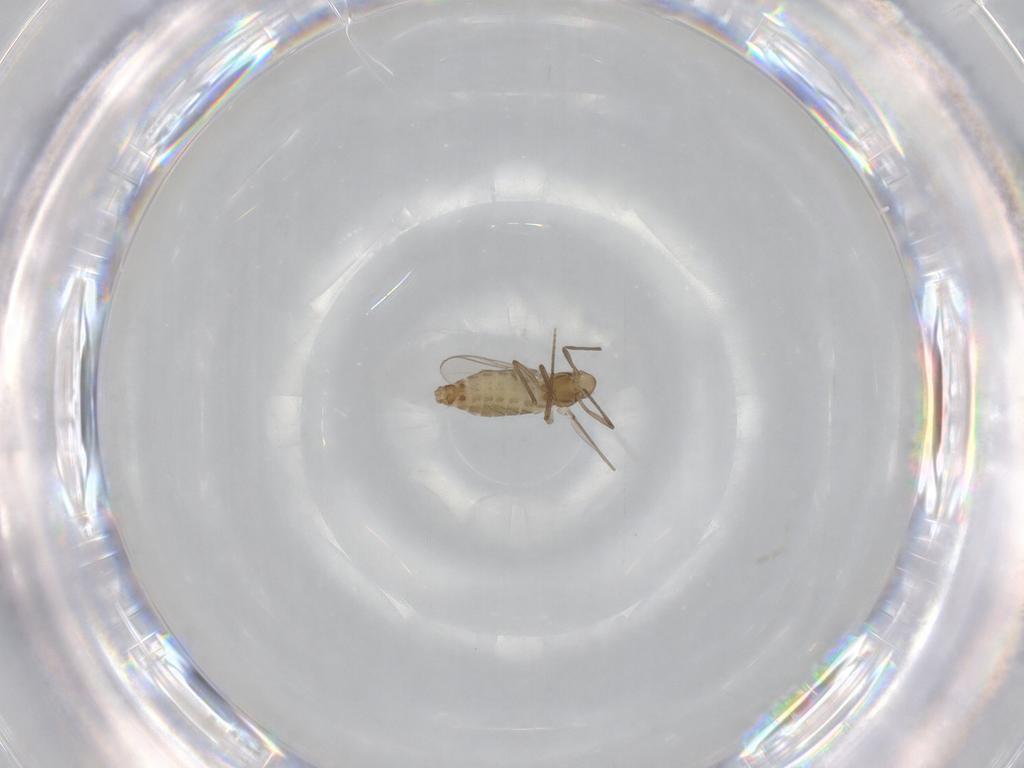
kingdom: Animalia
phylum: Arthropoda
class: Insecta
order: Diptera
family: Chironomidae
